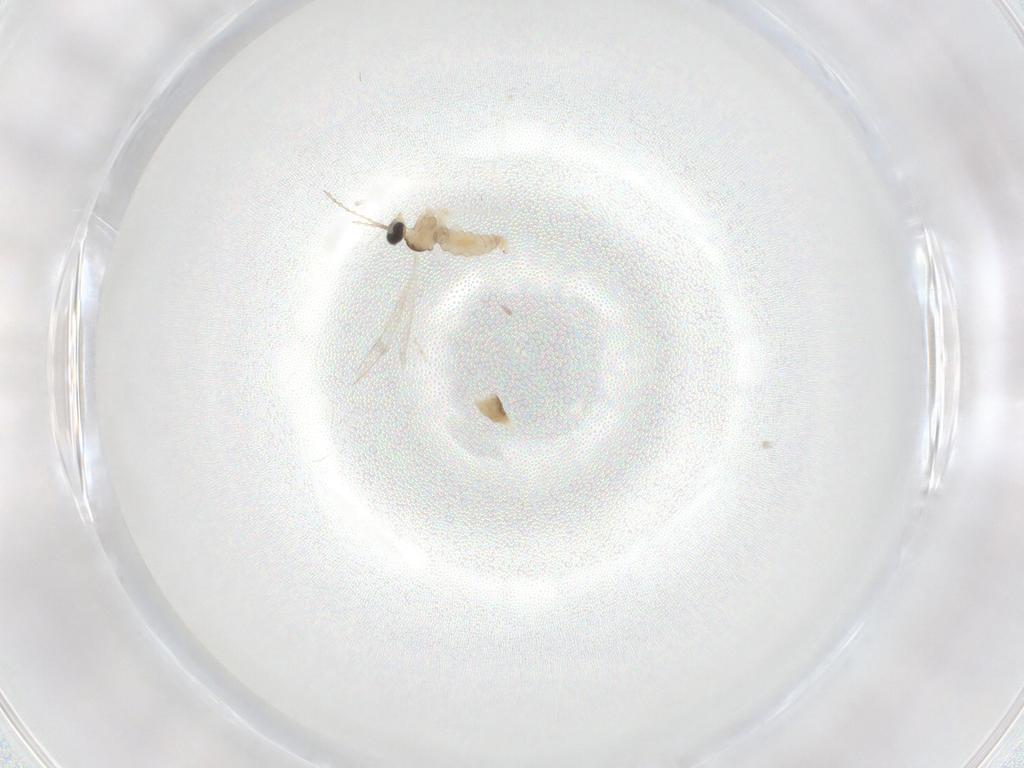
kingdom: Animalia
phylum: Arthropoda
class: Insecta
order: Diptera
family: Cecidomyiidae
